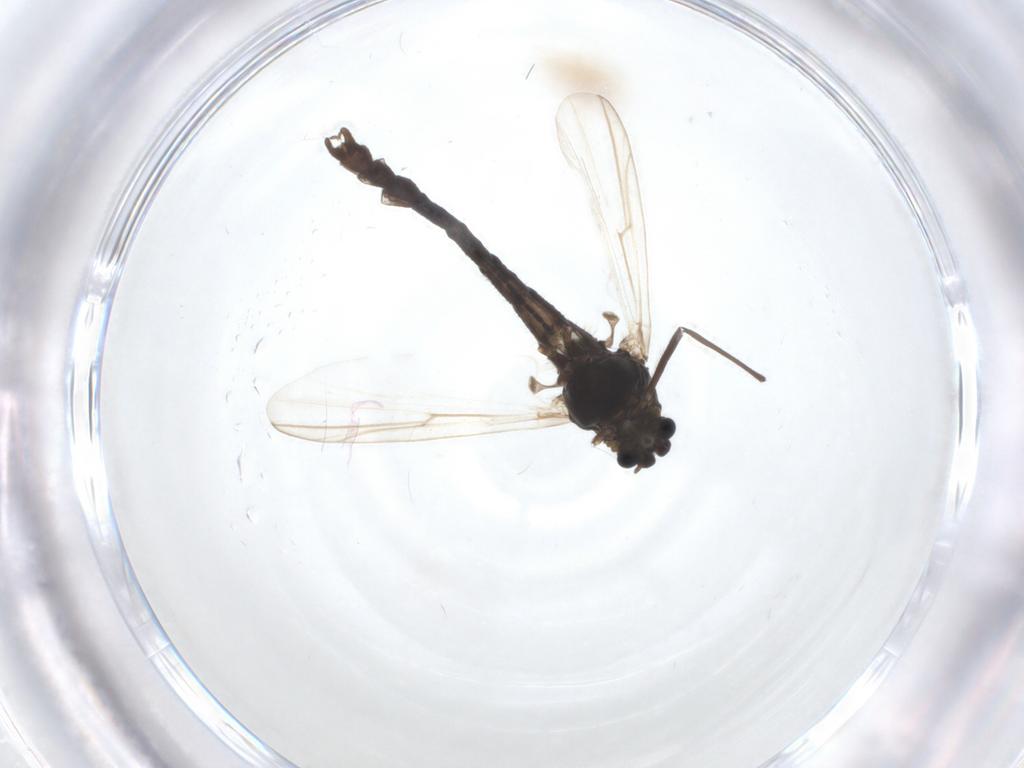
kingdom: Animalia
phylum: Arthropoda
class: Insecta
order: Diptera
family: Chironomidae
